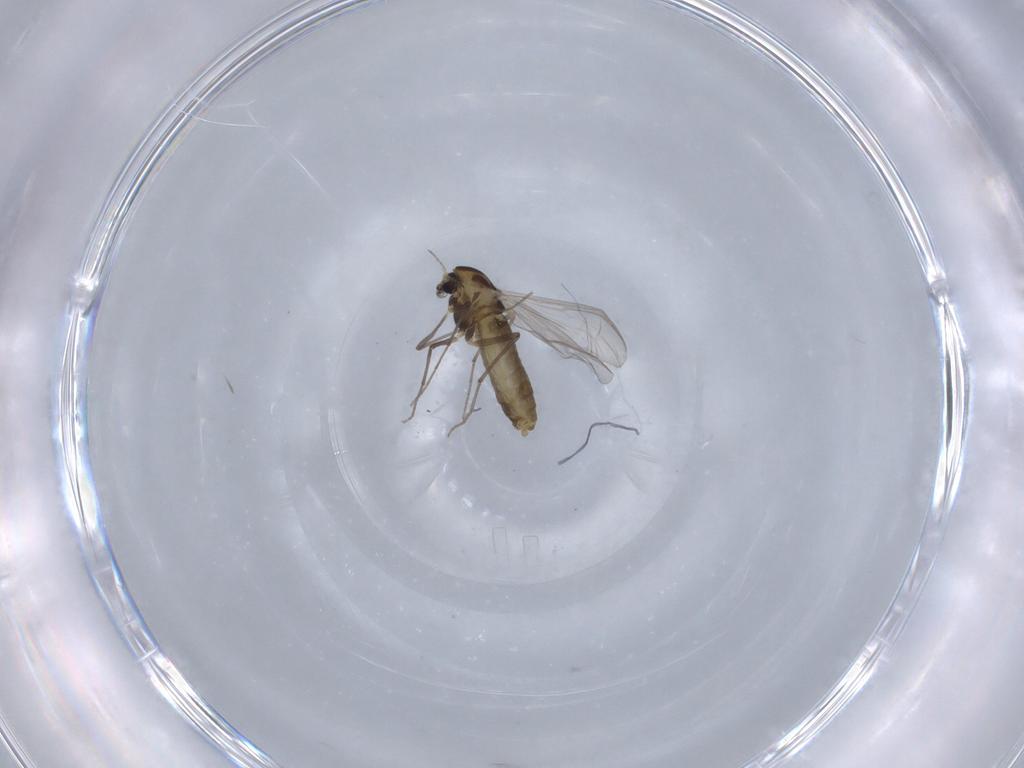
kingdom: Animalia
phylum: Arthropoda
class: Insecta
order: Diptera
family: Chironomidae
